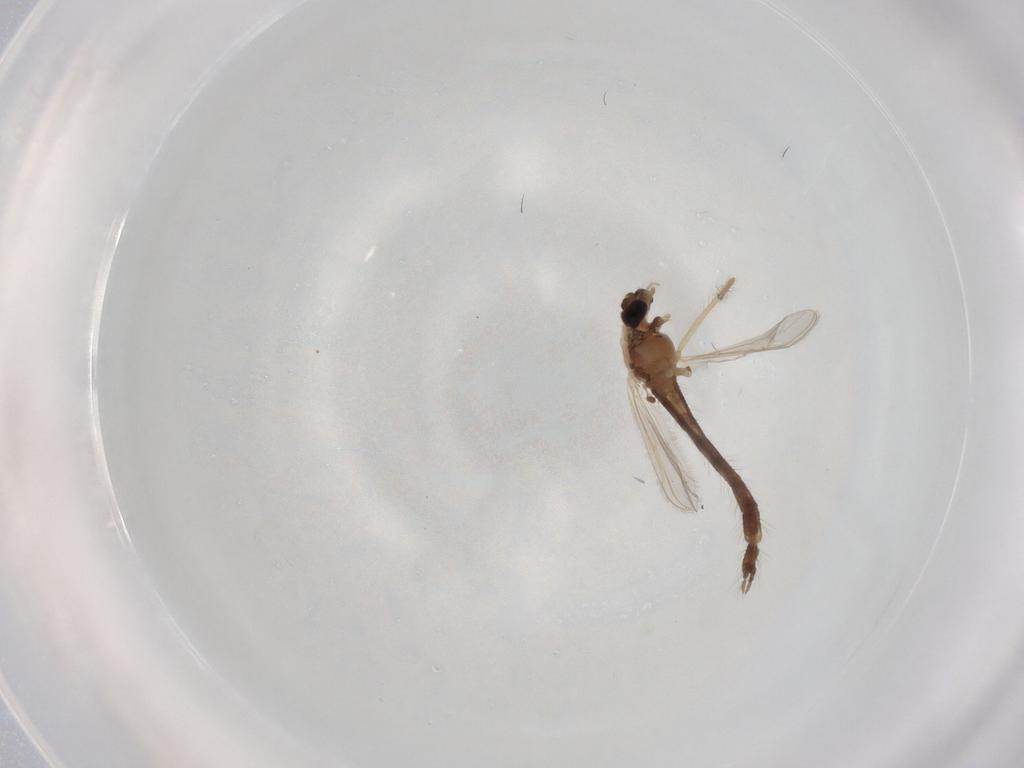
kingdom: Animalia
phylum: Arthropoda
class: Insecta
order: Diptera
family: Chironomidae
